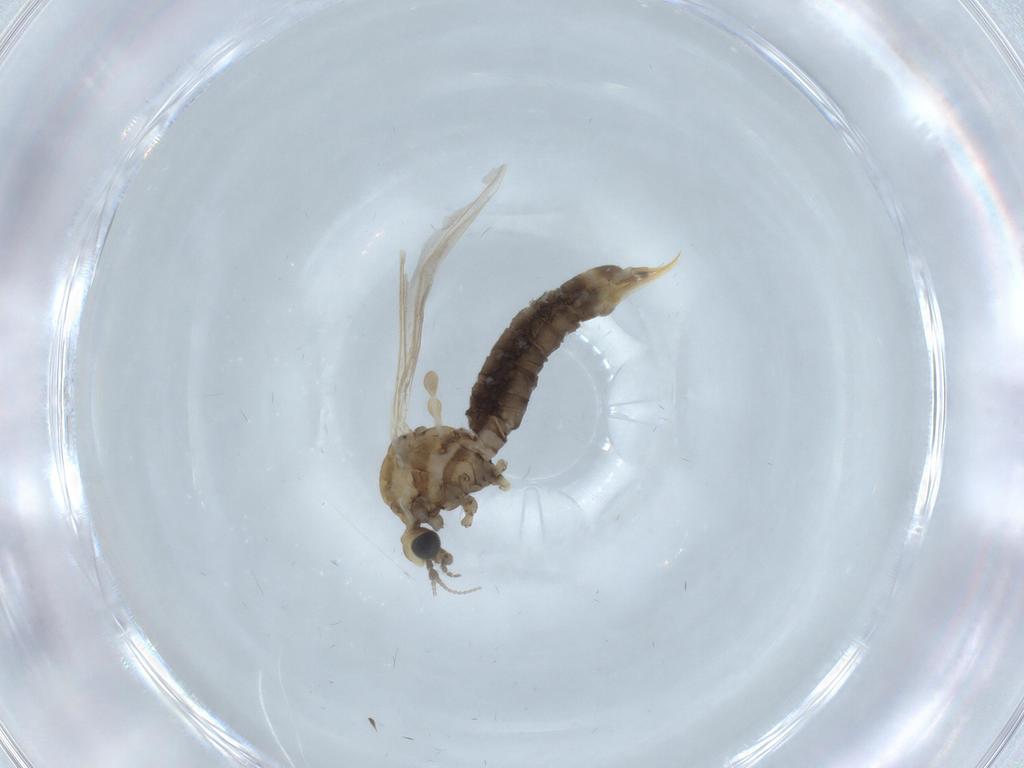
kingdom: Animalia
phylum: Arthropoda
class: Insecta
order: Diptera
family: Limoniidae
